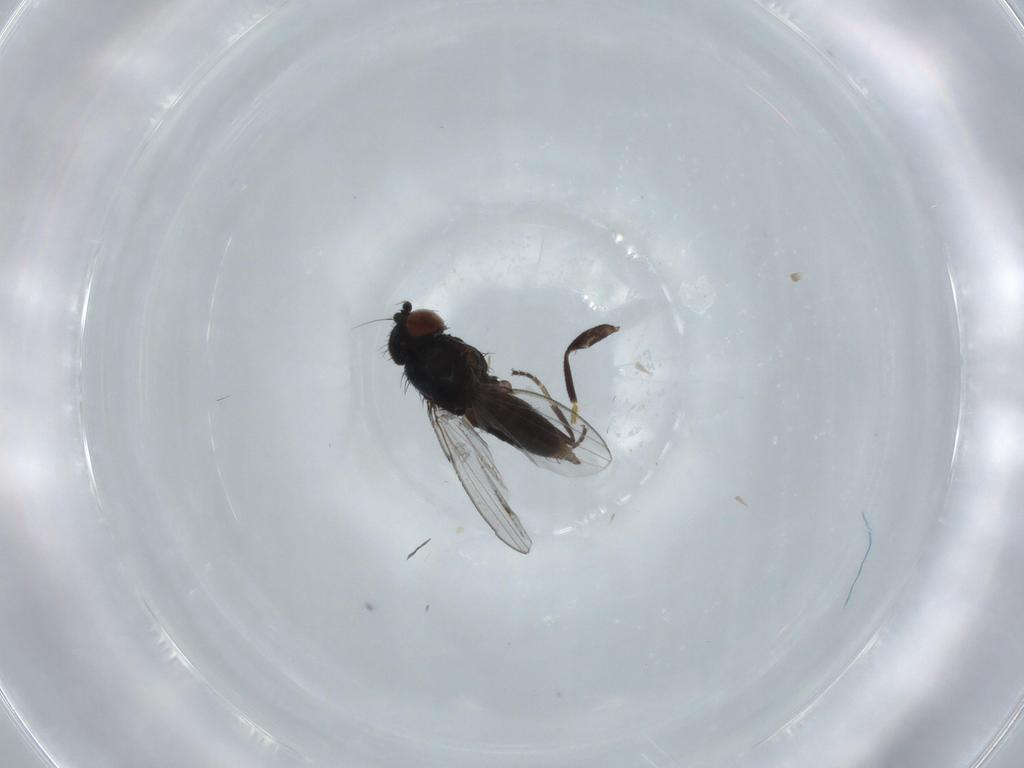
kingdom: Animalia
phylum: Arthropoda
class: Insecta
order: Diptera
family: Milichiidae
